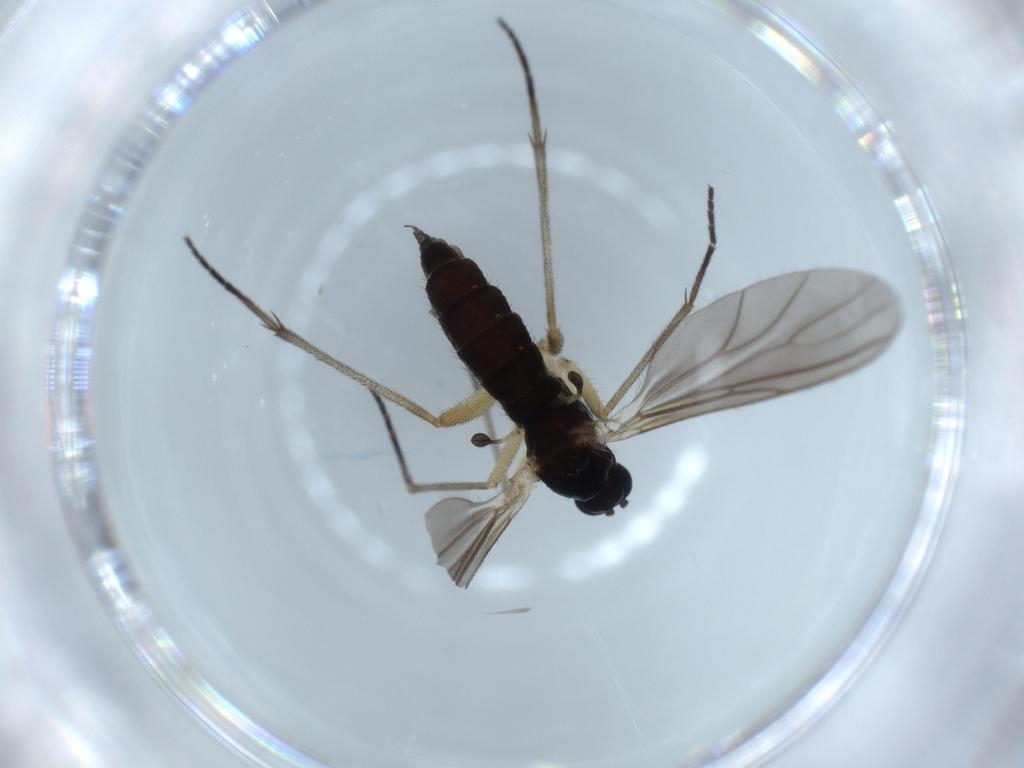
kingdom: Animalia
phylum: Arthropoda
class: Insecta
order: Diptera
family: Sciaridae
